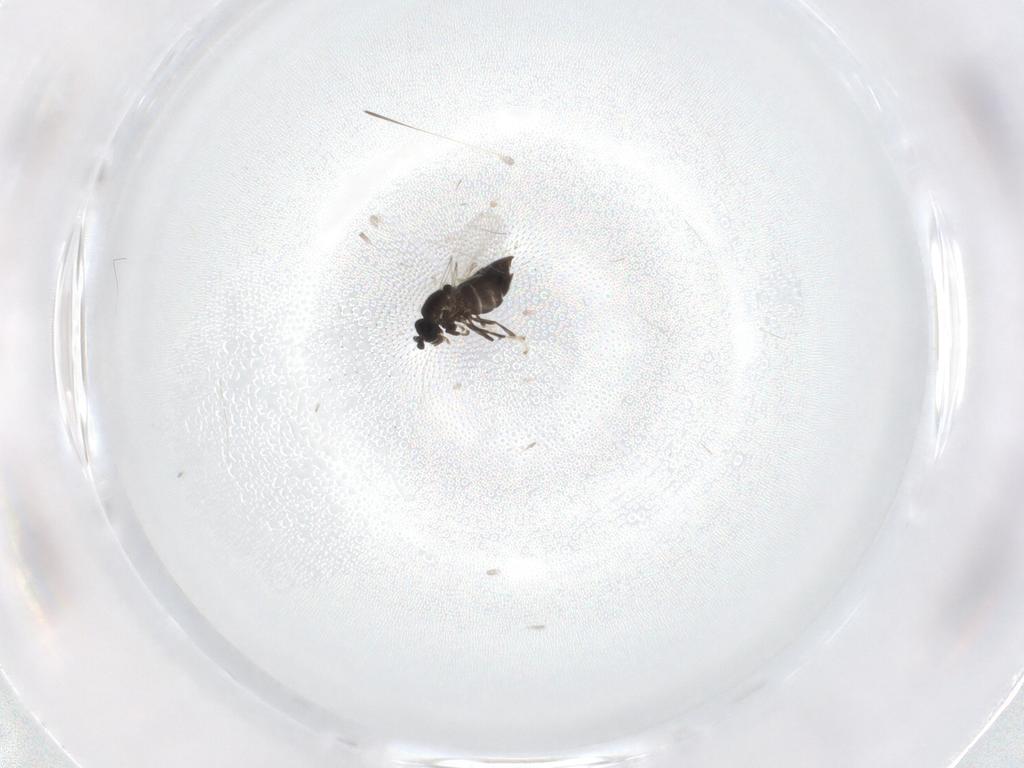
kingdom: Animalia
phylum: Arthropoda
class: Insecta
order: Diptera
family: Scatopsidae
